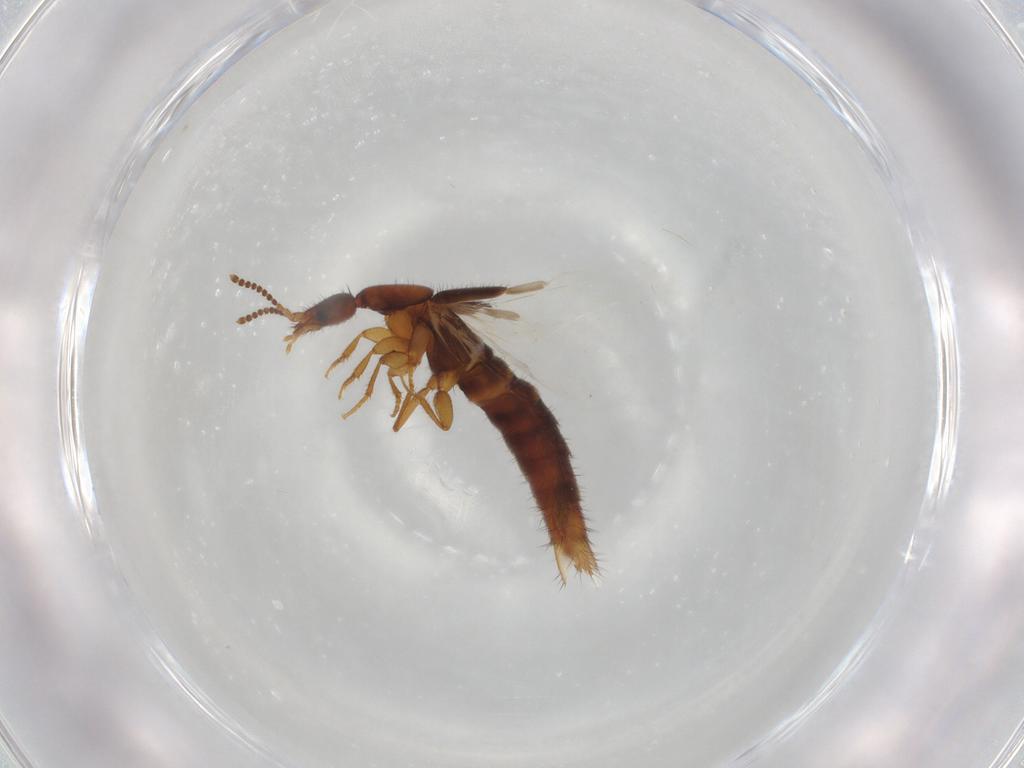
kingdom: Animalia
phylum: Arthropoda
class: Insecta
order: Coleoptera
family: Staphylinidae
